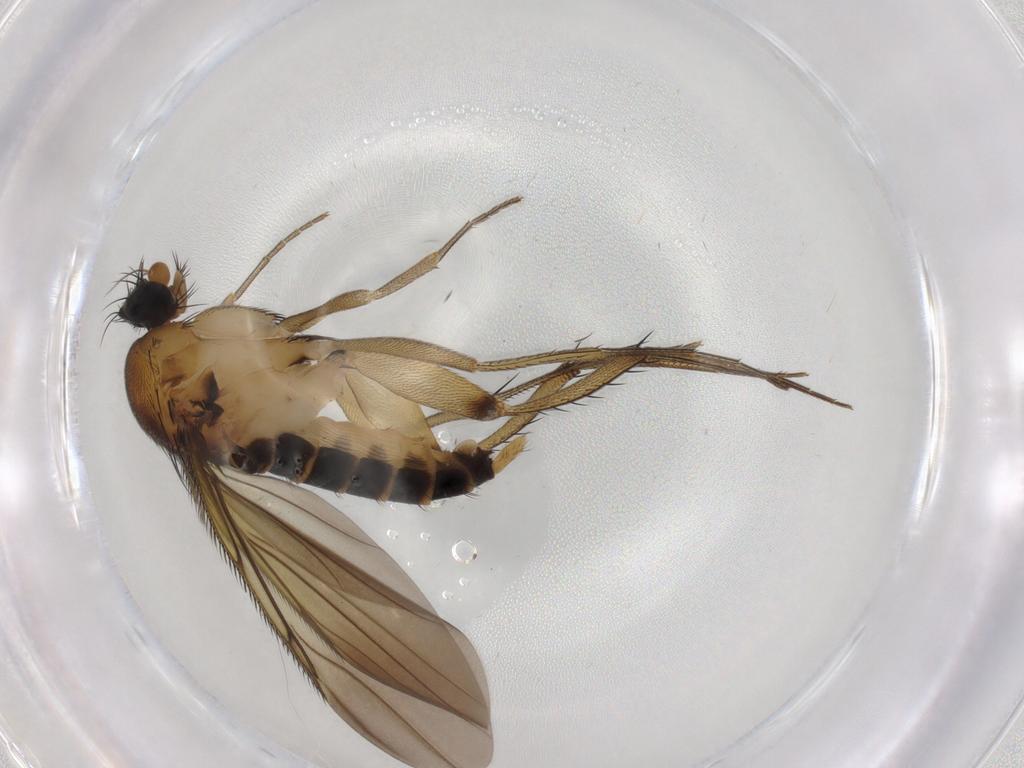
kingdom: Animalia
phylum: Arthropoda
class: Insecta
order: Diptera
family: Phoridae
